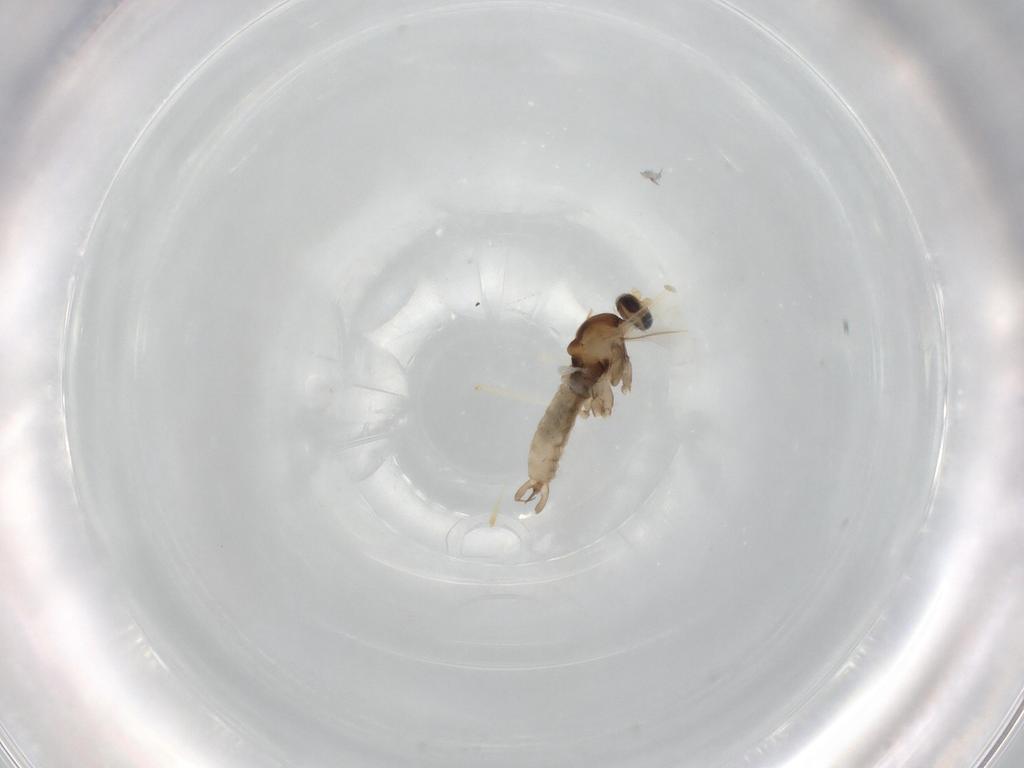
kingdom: Animalia
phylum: Arthropoda
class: Insecta
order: Diptera
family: Cecidomyiidae
